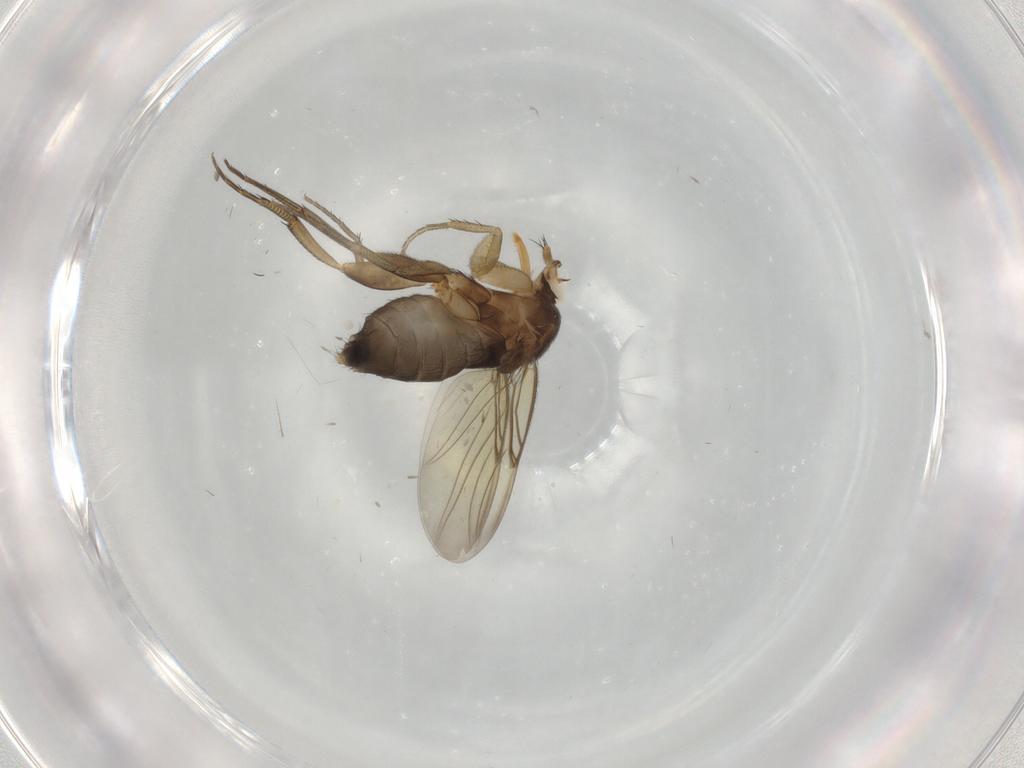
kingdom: Animalia
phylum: Arthropoda
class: Insecta
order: Diptera
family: Phoridae
